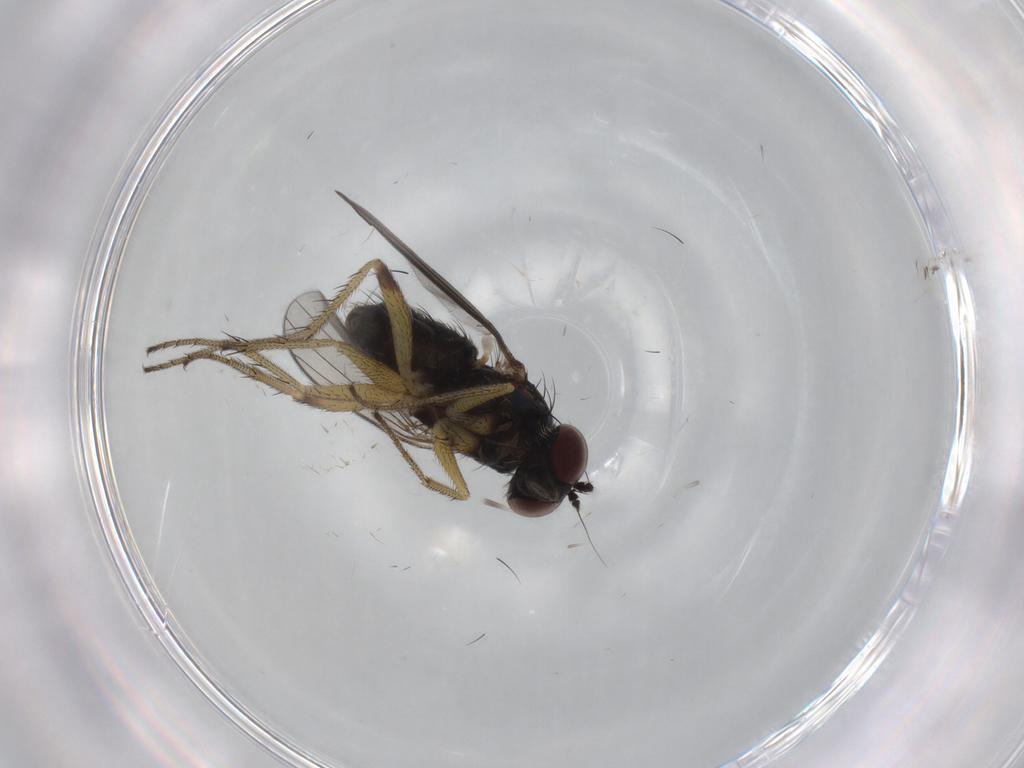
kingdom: Animalia
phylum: Arthropoda
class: Insecta
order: Diptera
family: Dolichopodidae
